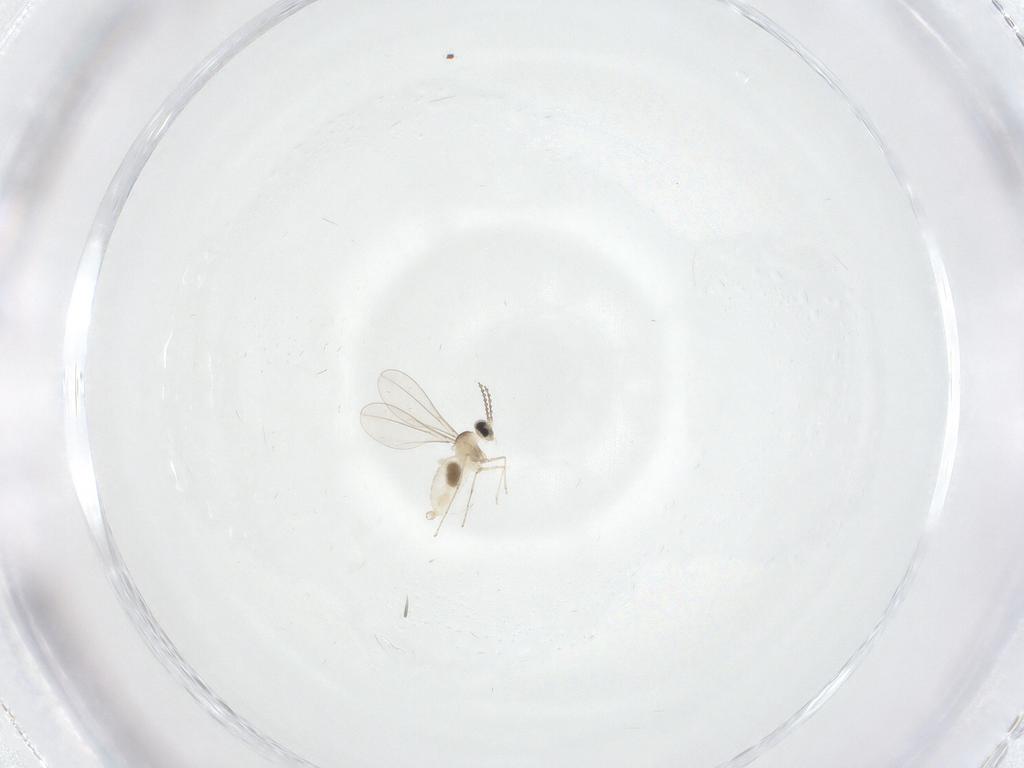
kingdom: Animalia
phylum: Arthropoda
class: Insecta
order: Diptera
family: Cecidomyiidae
